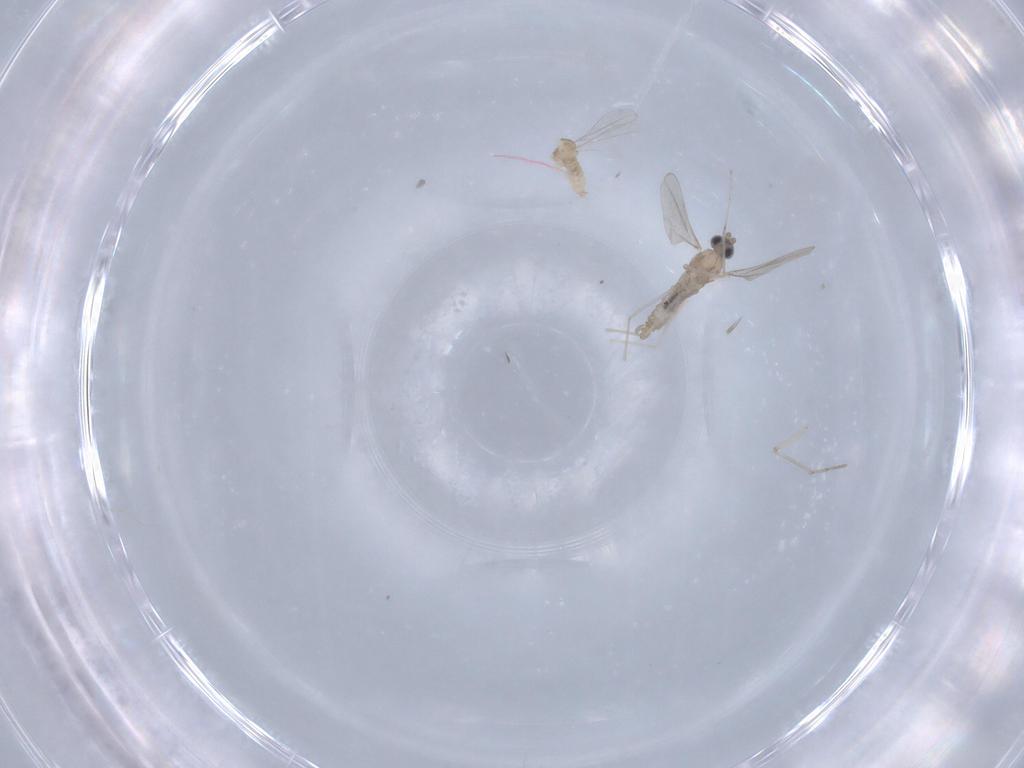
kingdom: Animalia
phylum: Arthropoda
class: Insecta
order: Diptera
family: Cecidomyiidae
